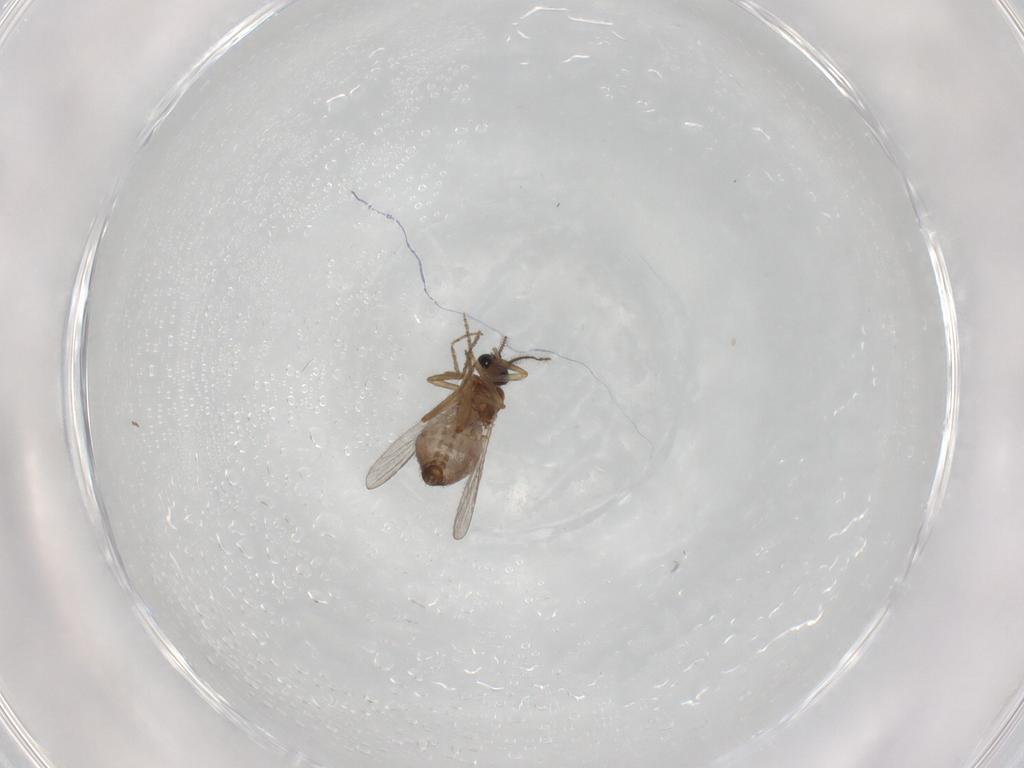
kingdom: Animalia
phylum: Arthropoda
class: Insecta
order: Diptera
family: Ceratopogonidae
